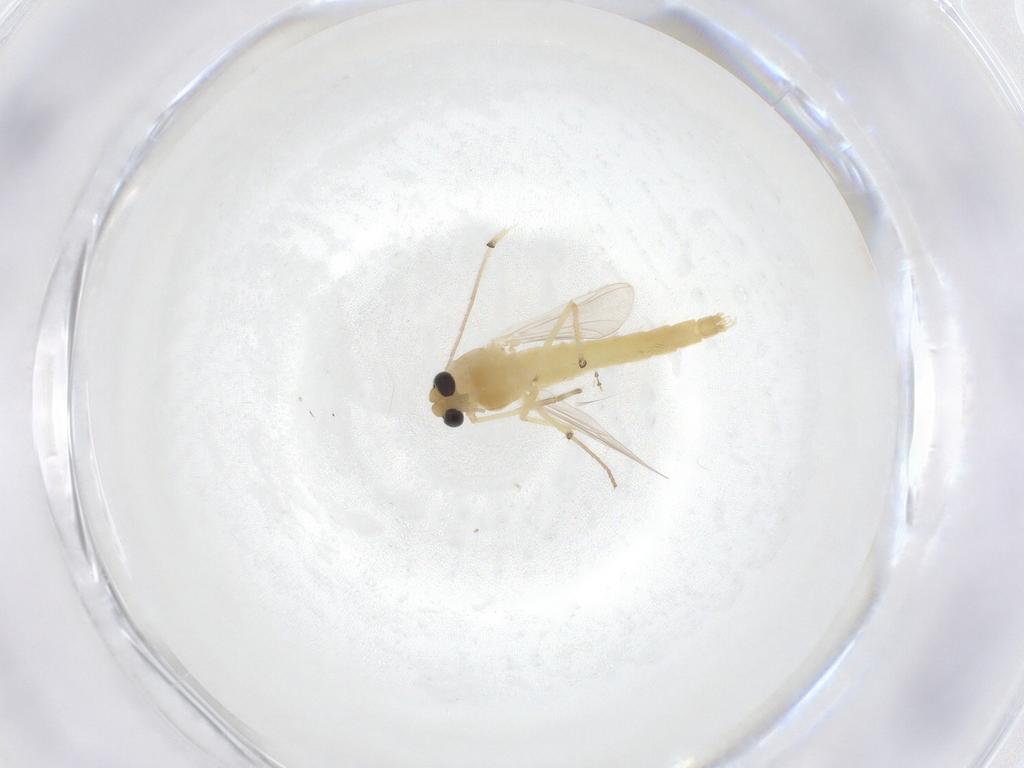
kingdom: Animalia
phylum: Arthropoda
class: Insecta
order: Diptera
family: Chironomidae
